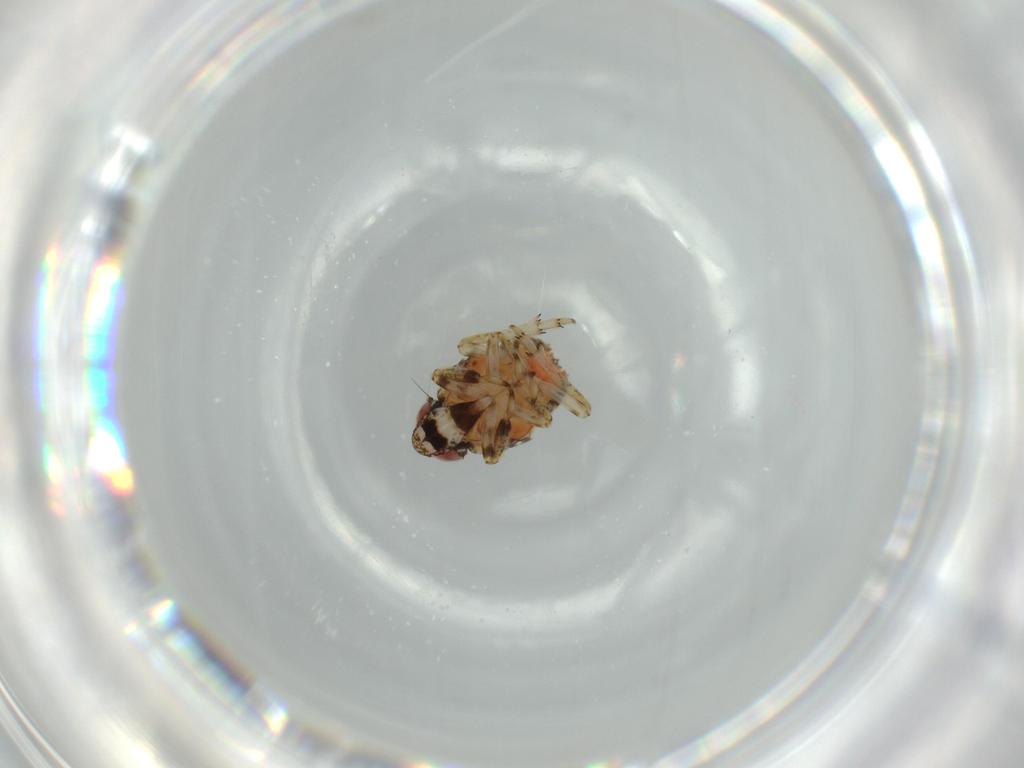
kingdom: Animalia
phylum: Arthropoda
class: Insecta
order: Hemiptera
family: Issidae
